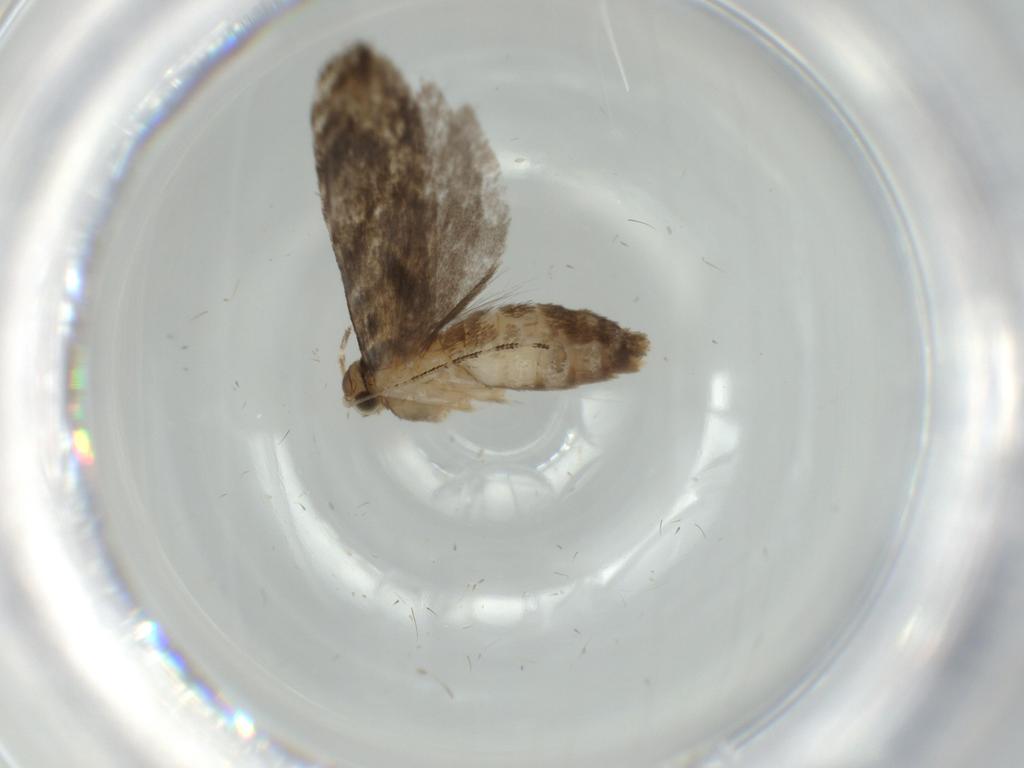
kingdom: Animalia
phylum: Arthropoda
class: Insecta
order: Lepidoptera
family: Tineidae
